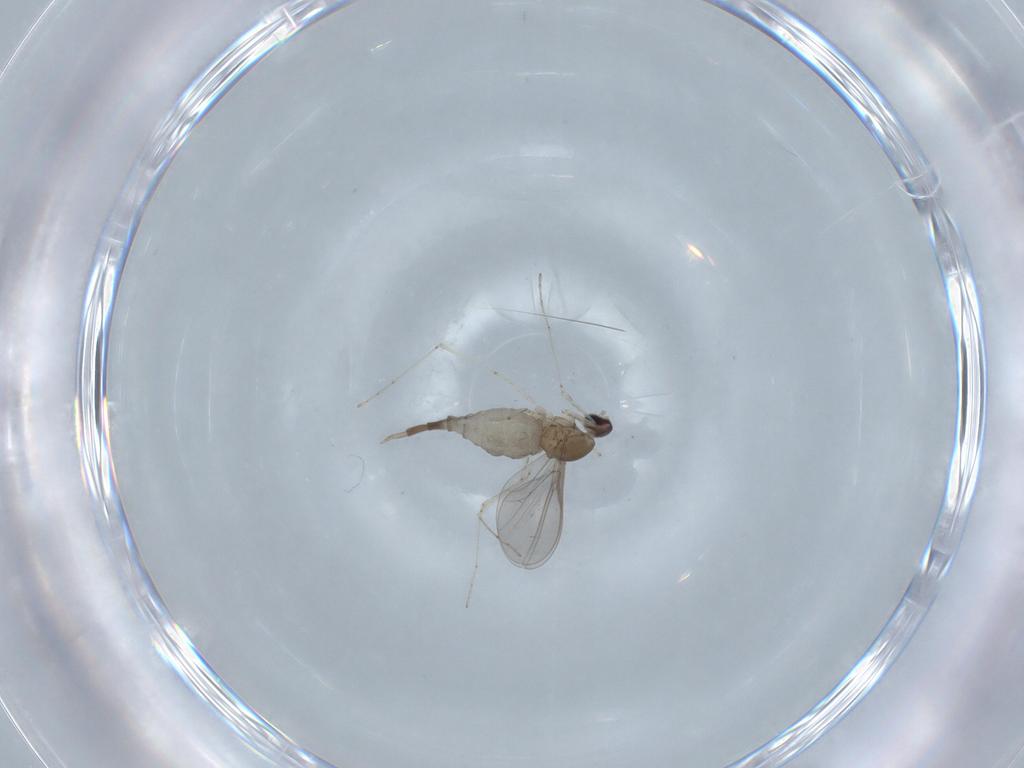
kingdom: Animalia
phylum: Arthropoda
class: Insecta
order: Diptera
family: Cecidomyiidae
